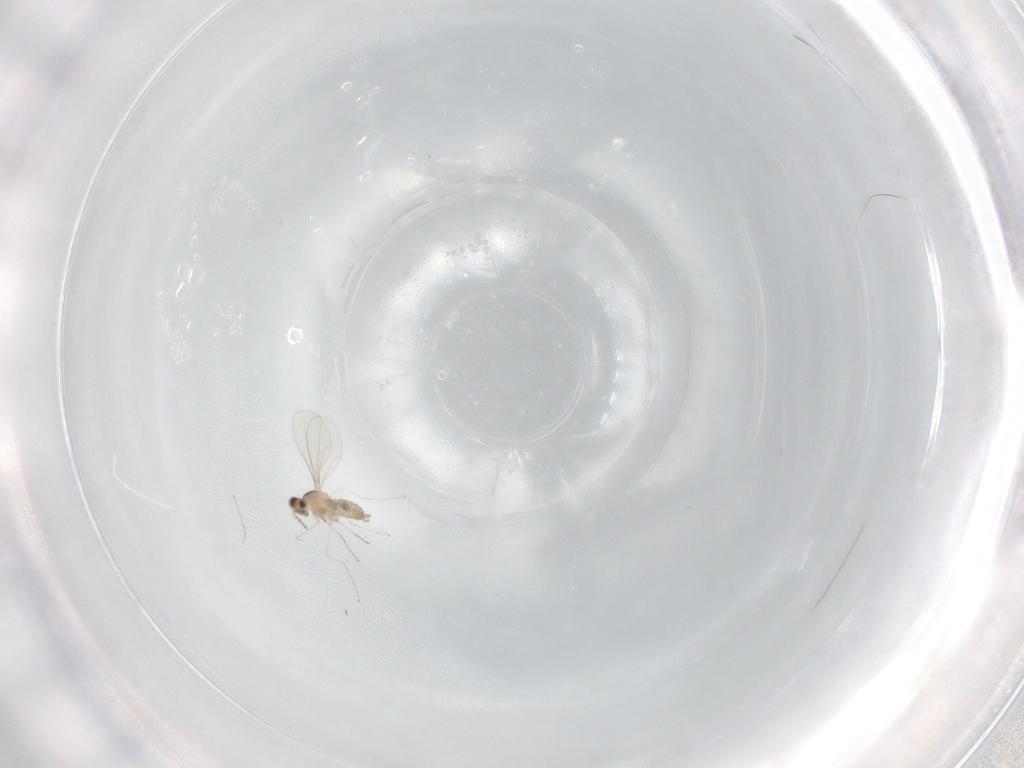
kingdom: Animalia
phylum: Arthropoda
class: Insecta
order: Diptera
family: Cecidomyiidae
